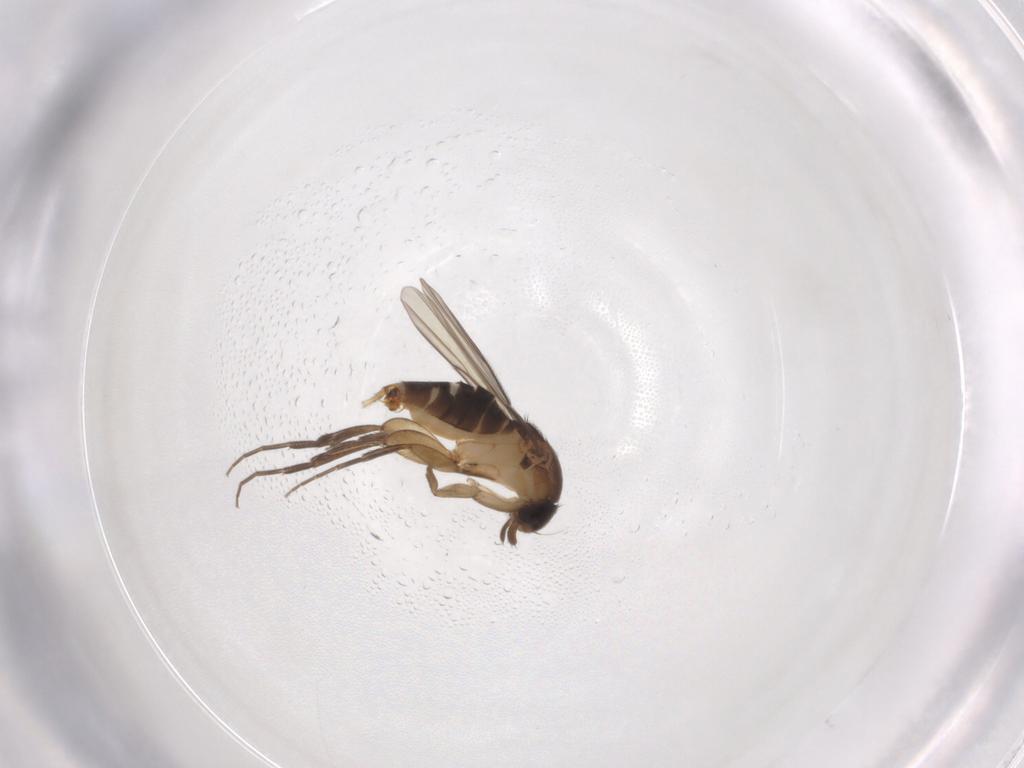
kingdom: Animalia
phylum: Arthropoda
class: Insecta
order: Diptera
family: Phoridae
